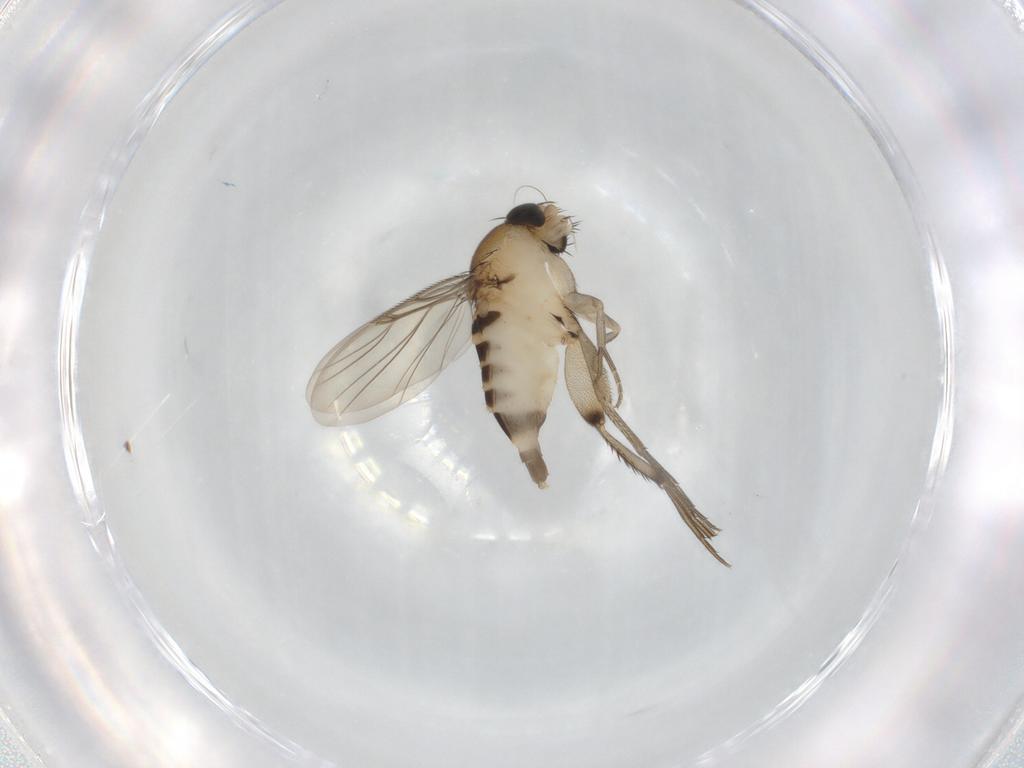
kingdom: Animalia
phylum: Arthropoda
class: Insecta
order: Diptera
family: Phoridae
